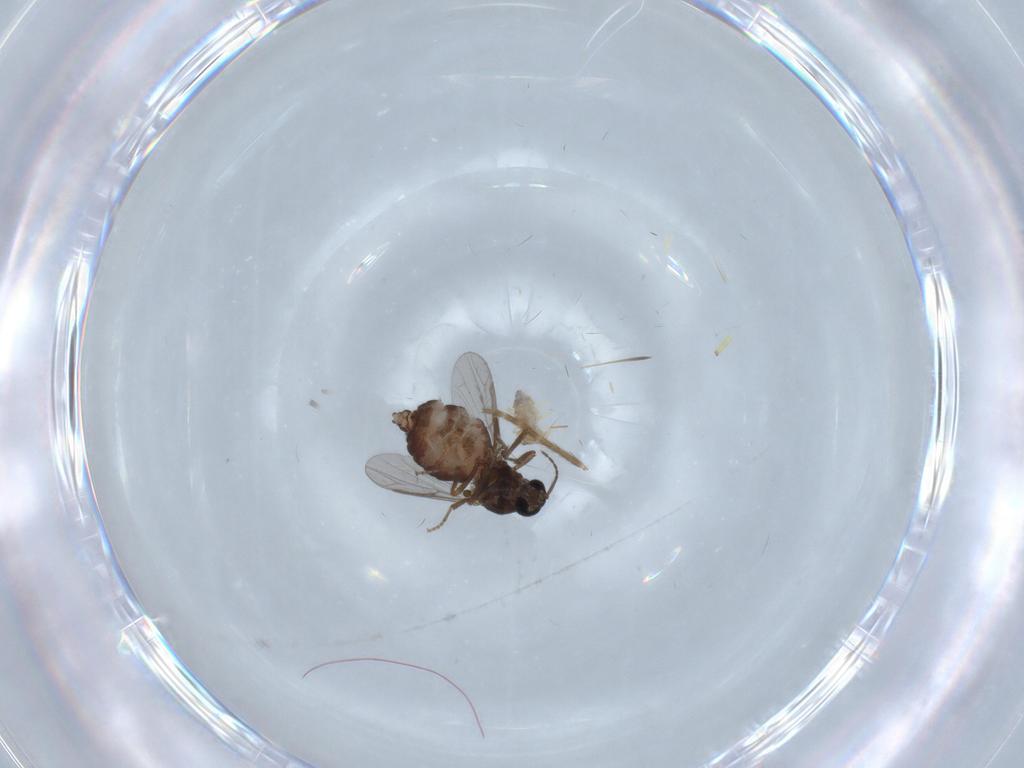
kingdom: Animalia
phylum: Arthropoda
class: Insecta
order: Diptera
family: Ceratopogonidae
